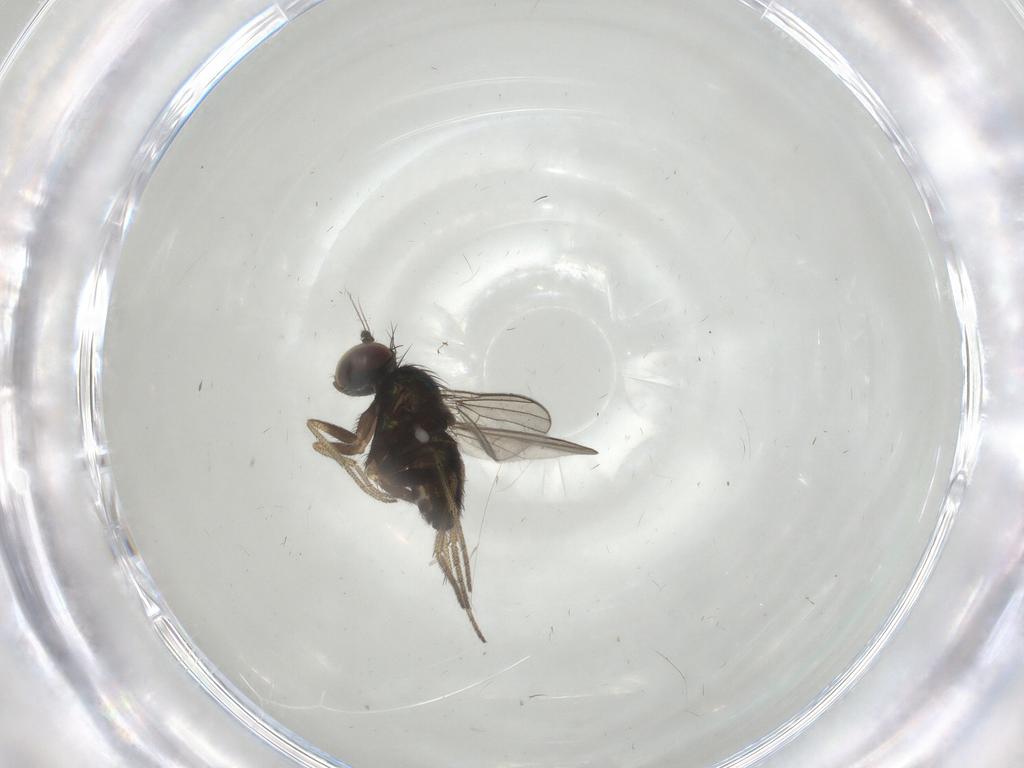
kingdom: Animalia
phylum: Arthropoda
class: Insecta
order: Diptera
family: Dolichopodidae
